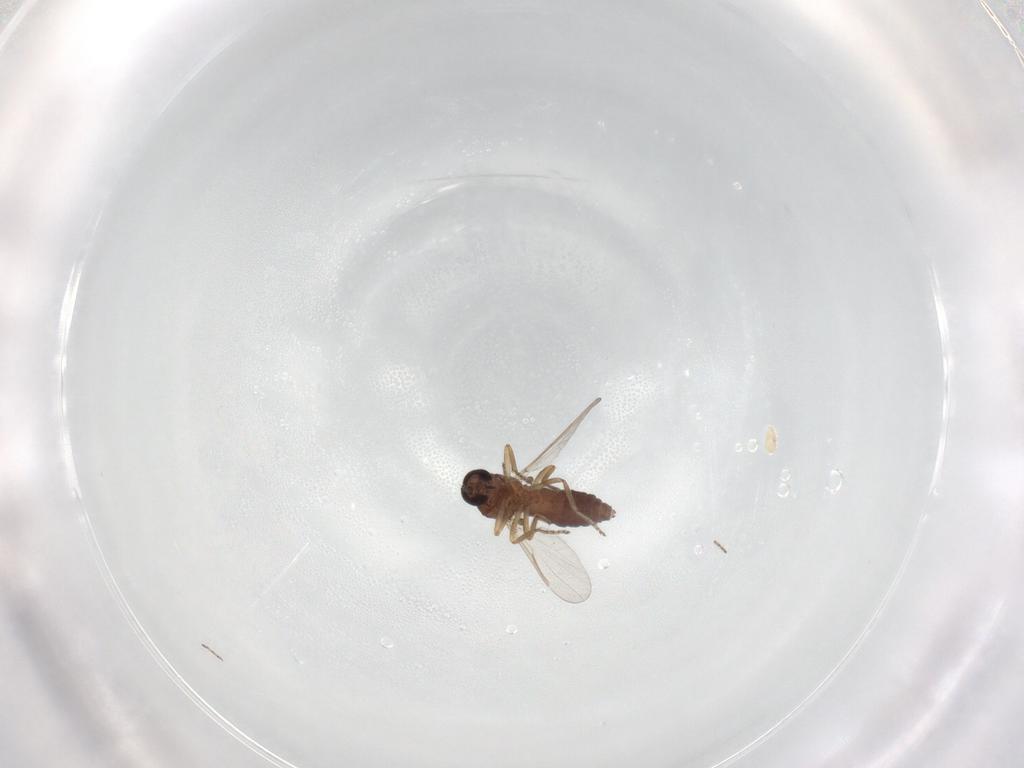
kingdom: Animalia
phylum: Arthropoda
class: Insecta
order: Diptera
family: Ceratopogonidae
